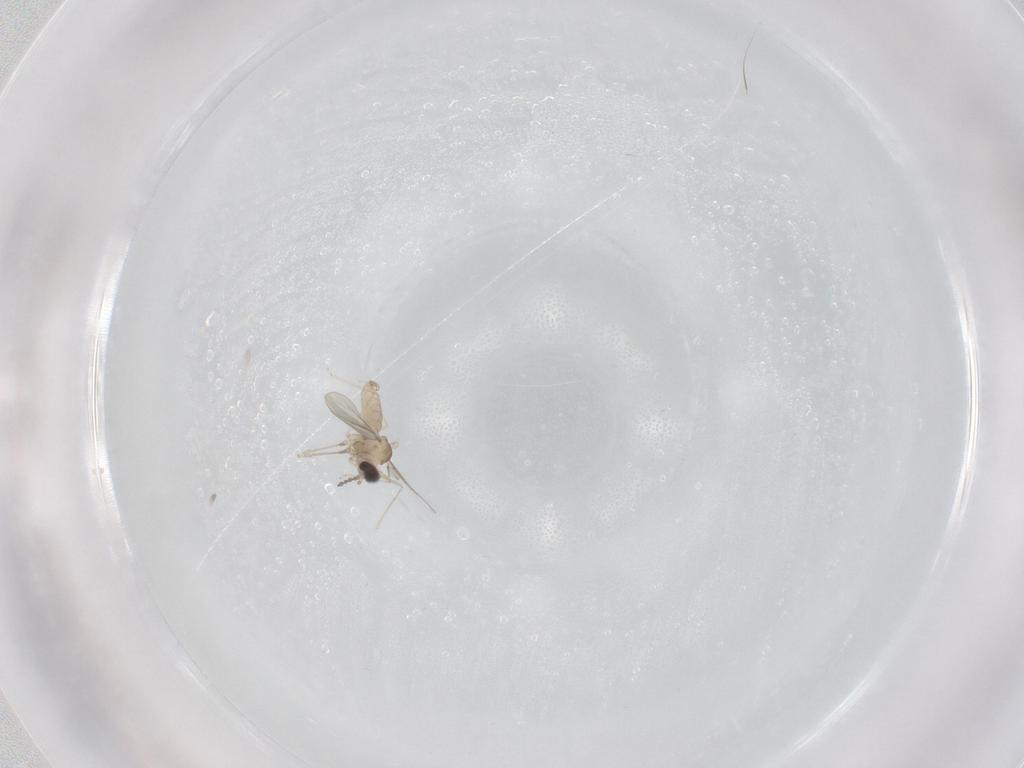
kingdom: Animalia
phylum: Arthropoda
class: Insecta
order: Diptera
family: Cecidomyiidae
